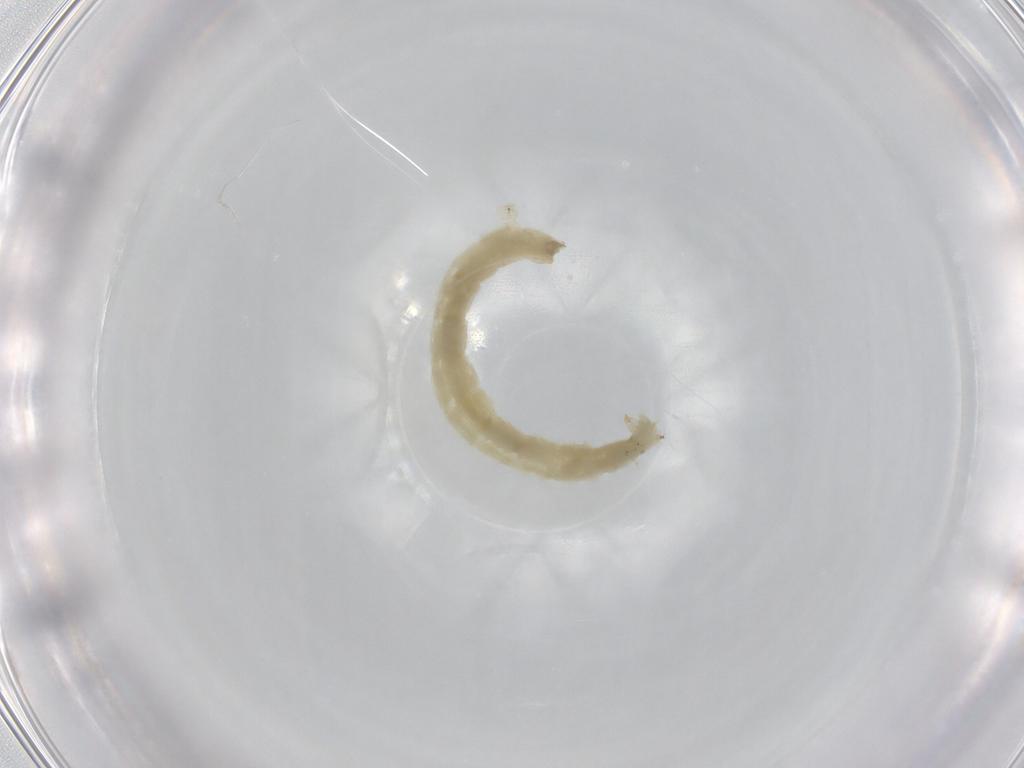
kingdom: Animalia
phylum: Arthropoda
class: Insecta
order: Diptera
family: Chironomidae
